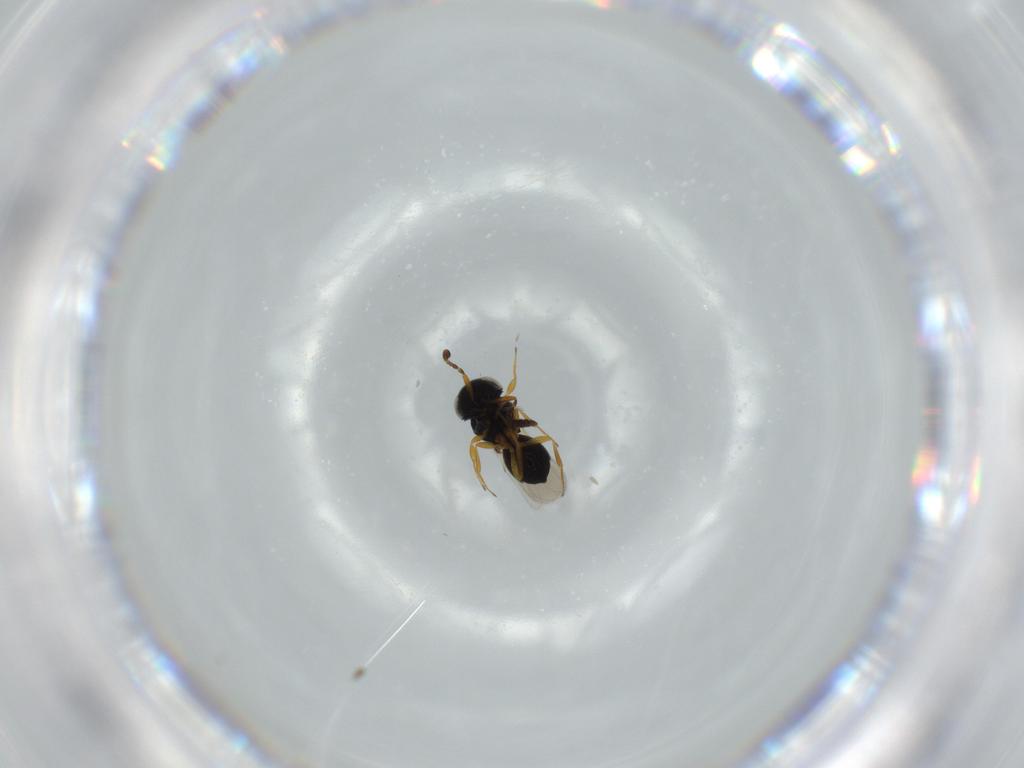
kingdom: Animalia
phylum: Arthropoda
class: Insecta
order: Hymenoptera
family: Scelionidae
